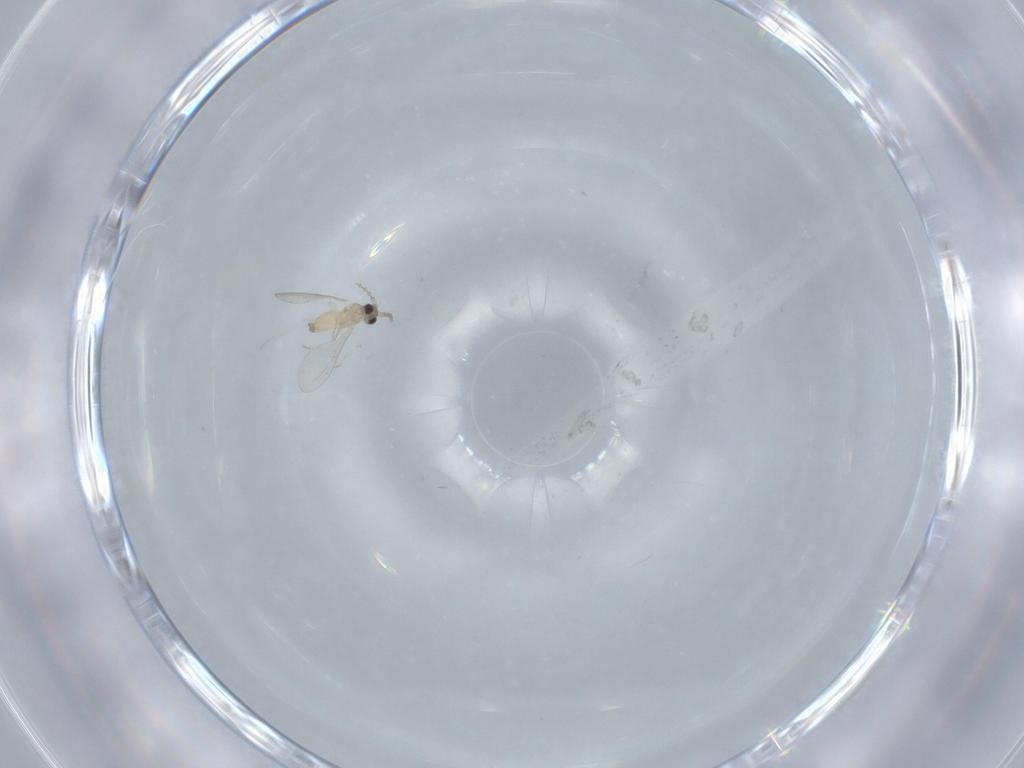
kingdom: Animalia
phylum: Arthropoda
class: Insecta
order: Diptera
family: Cecidomyiidae
